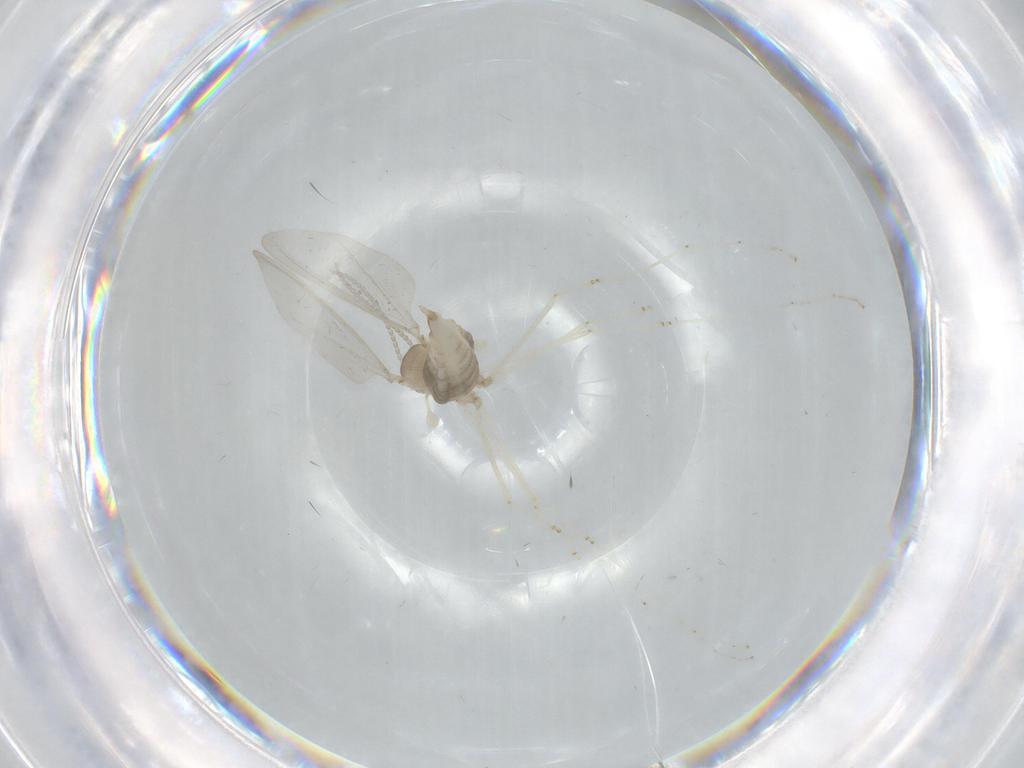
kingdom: Animalia
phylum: Arthropoda
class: Insecta
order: Diptera
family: Cecidomyiidae
